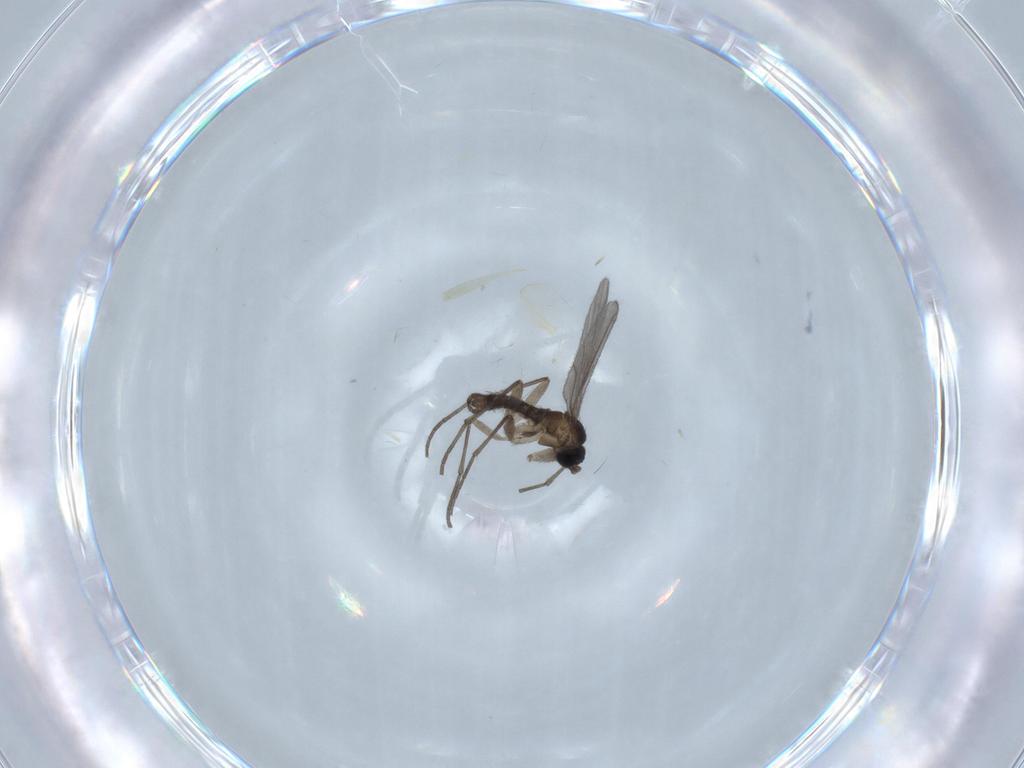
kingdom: Animalia
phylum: Arthropoda
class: Insecta
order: Diptera
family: Chironomidae
